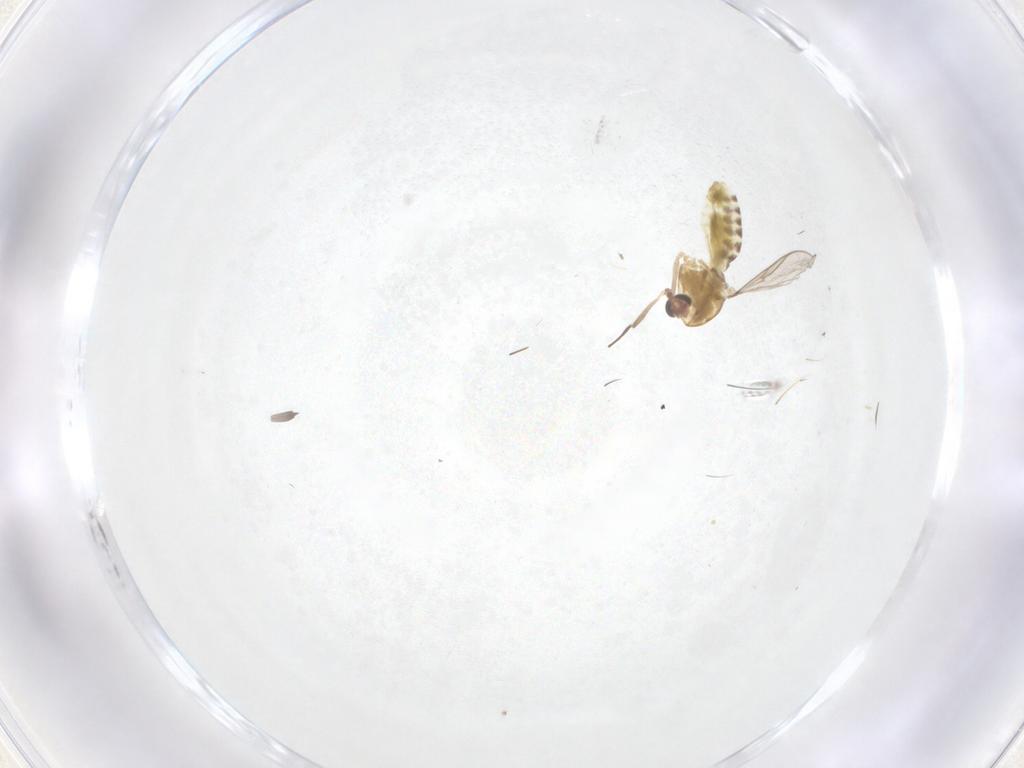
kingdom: Animalia
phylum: Arthropoda
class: Insecta
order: Diptera
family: Chironomidae
